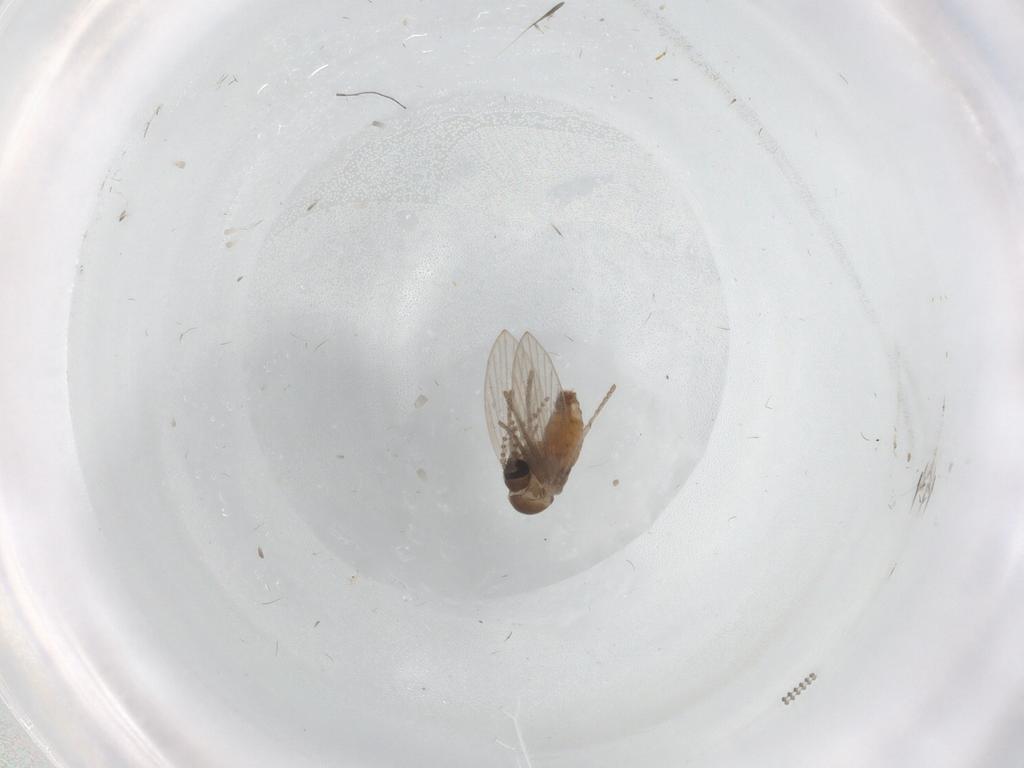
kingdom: Animalia
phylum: Arthropoda
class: Insecta
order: Diptera
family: Psychodidae
